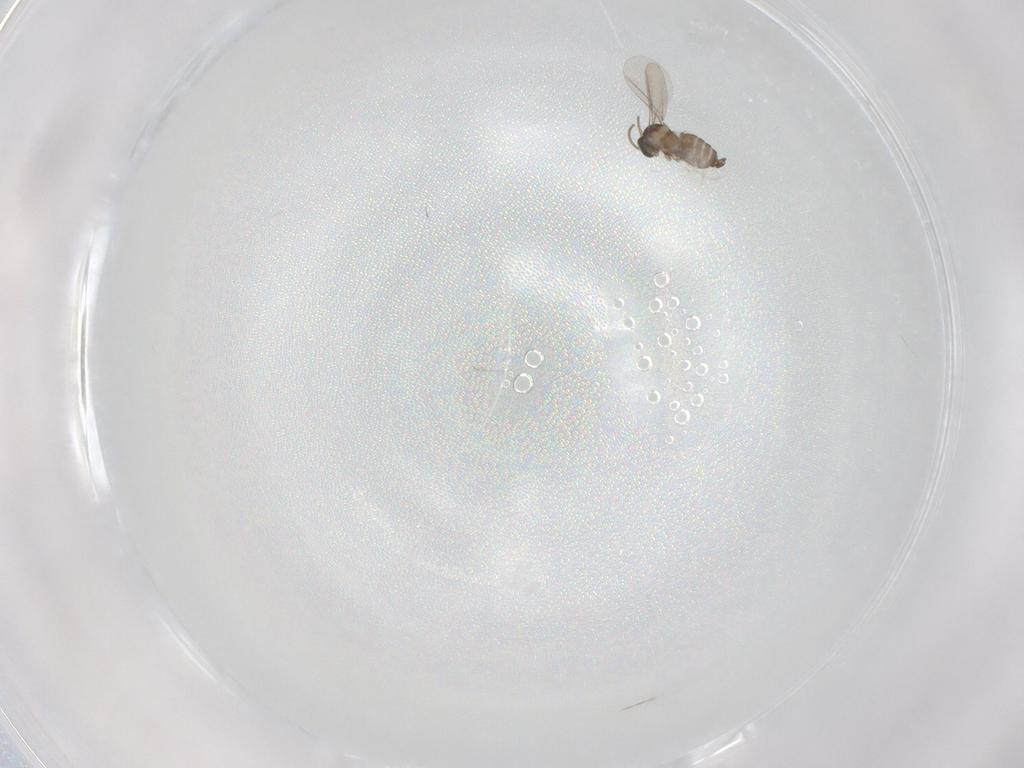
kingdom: Animalia
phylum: Arthropoda
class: Insecta
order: Diptera
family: Cecidomyiidae
